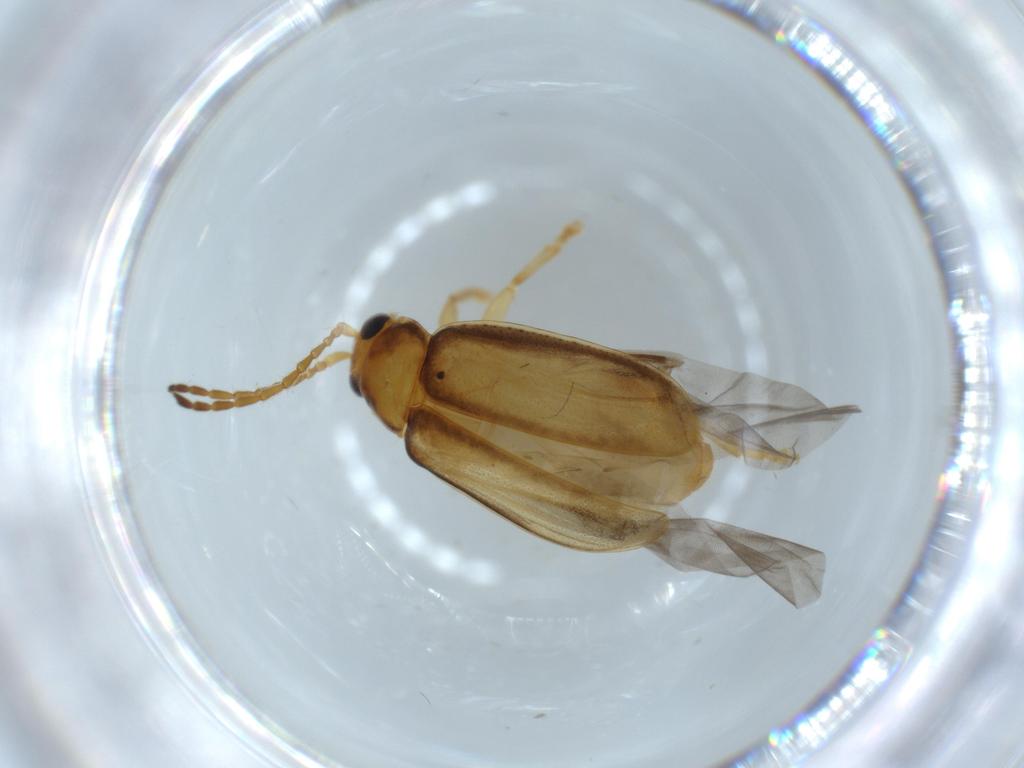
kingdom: Animalia
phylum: Arthropoda
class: Insecta
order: Coleoptera
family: Chrysomelidae
